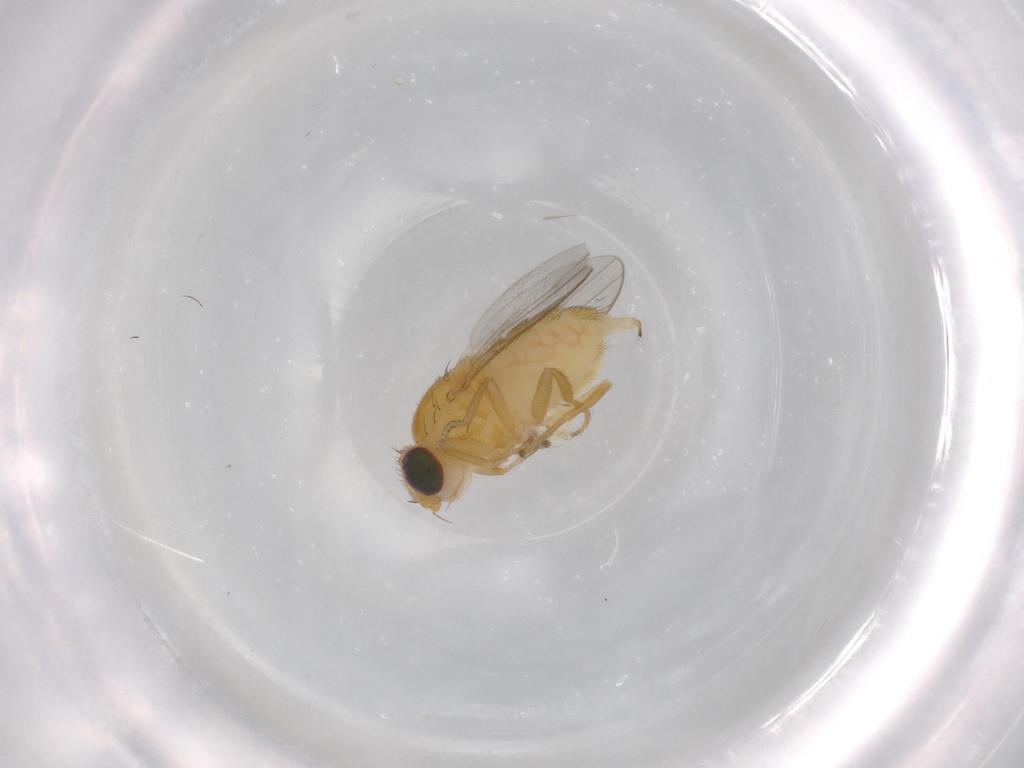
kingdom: Animalia
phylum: Arthropoda
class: Insecta
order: Diptera
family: Chloropidae
